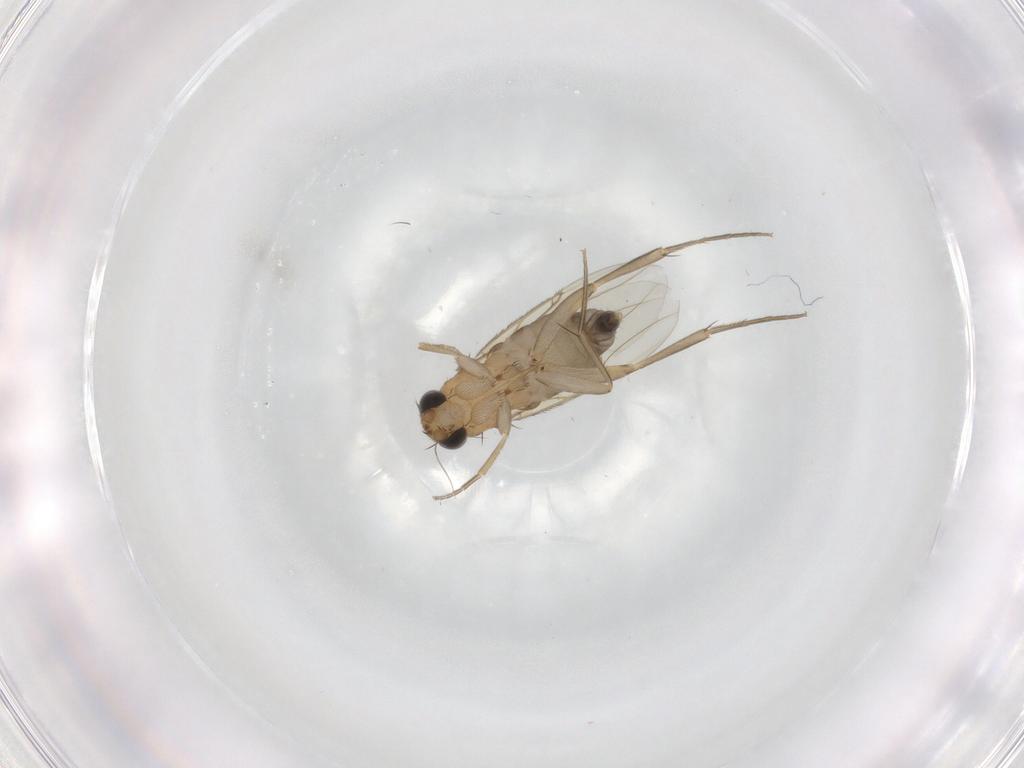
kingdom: Animalia
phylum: Arthropoda
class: Insecta
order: Diptera
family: Phoridae
